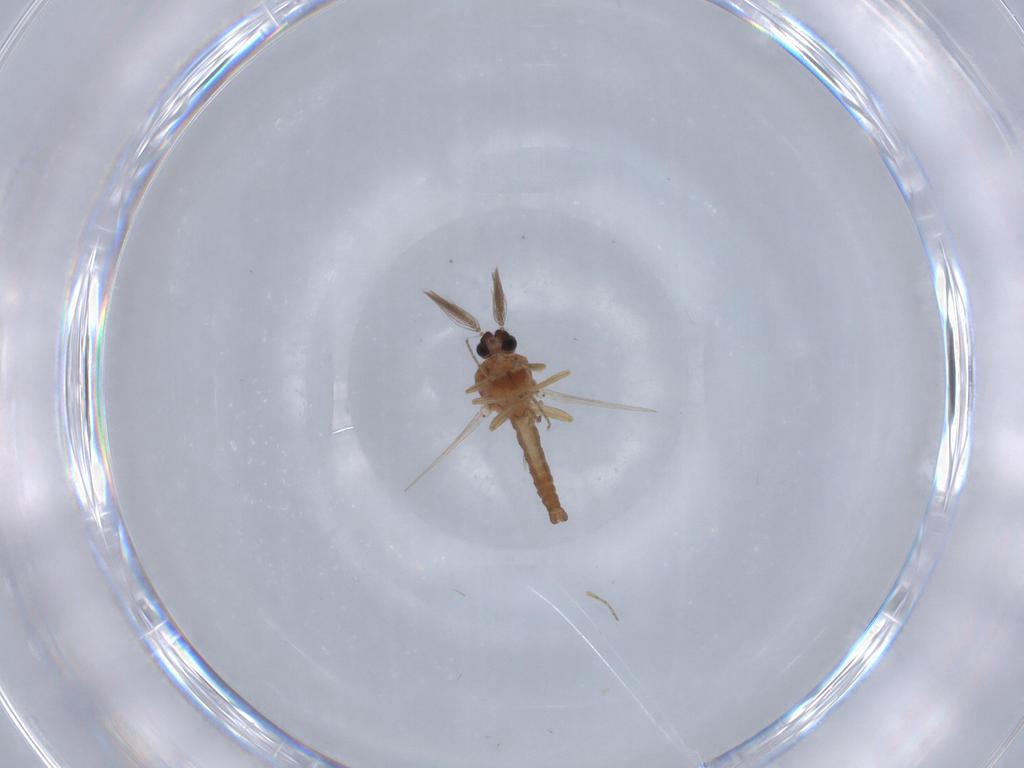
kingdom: Animalia
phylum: Arthropoda
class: Insecta
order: Diptera
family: Ceratopogonidae
